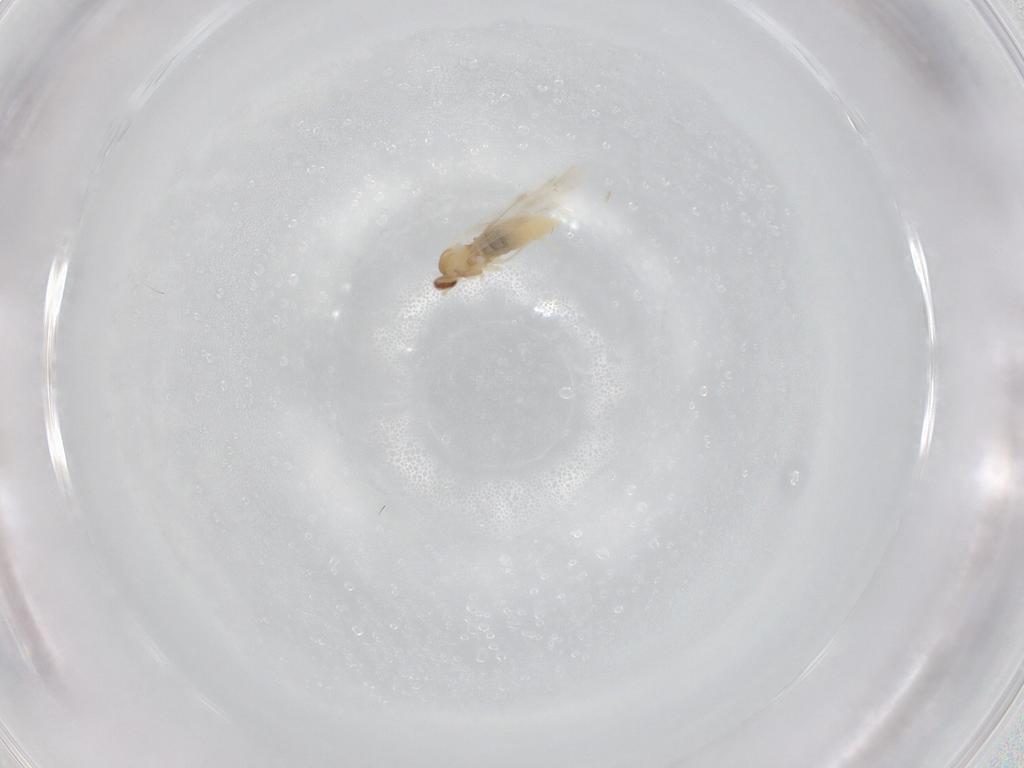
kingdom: Animalia
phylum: Arthropoda
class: Insecta
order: Diptera
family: Cecidomyiidae
